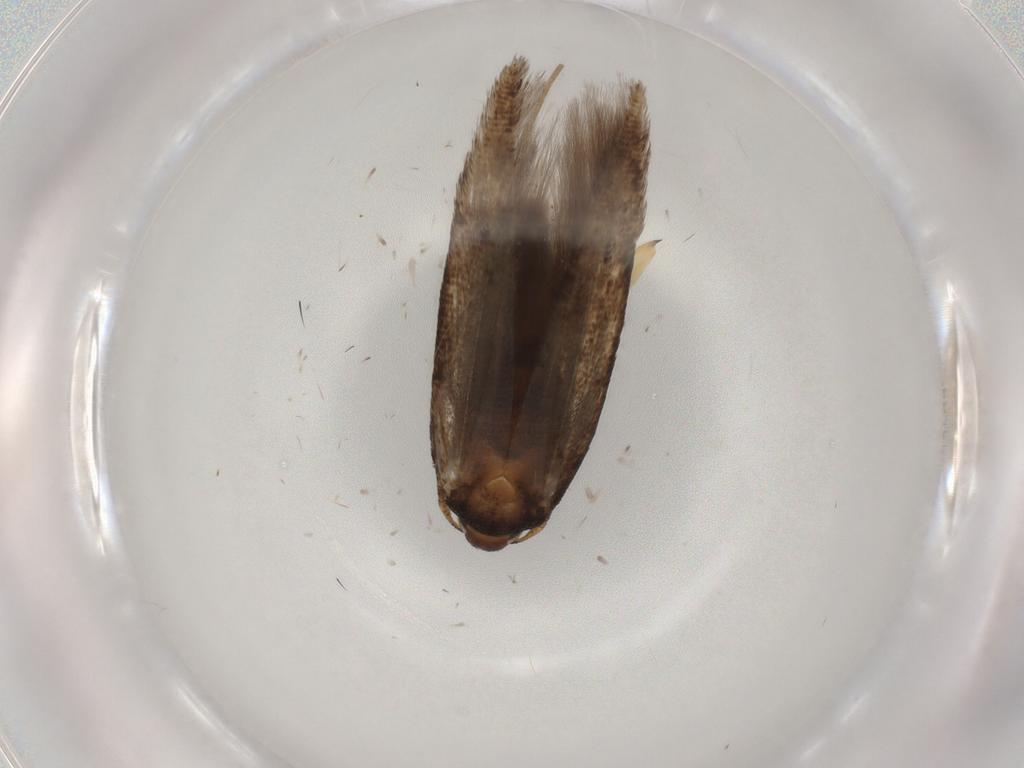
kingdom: Animalia
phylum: Arthropoda
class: Insecta
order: Lepidoptera
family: Cosmopterigidae
